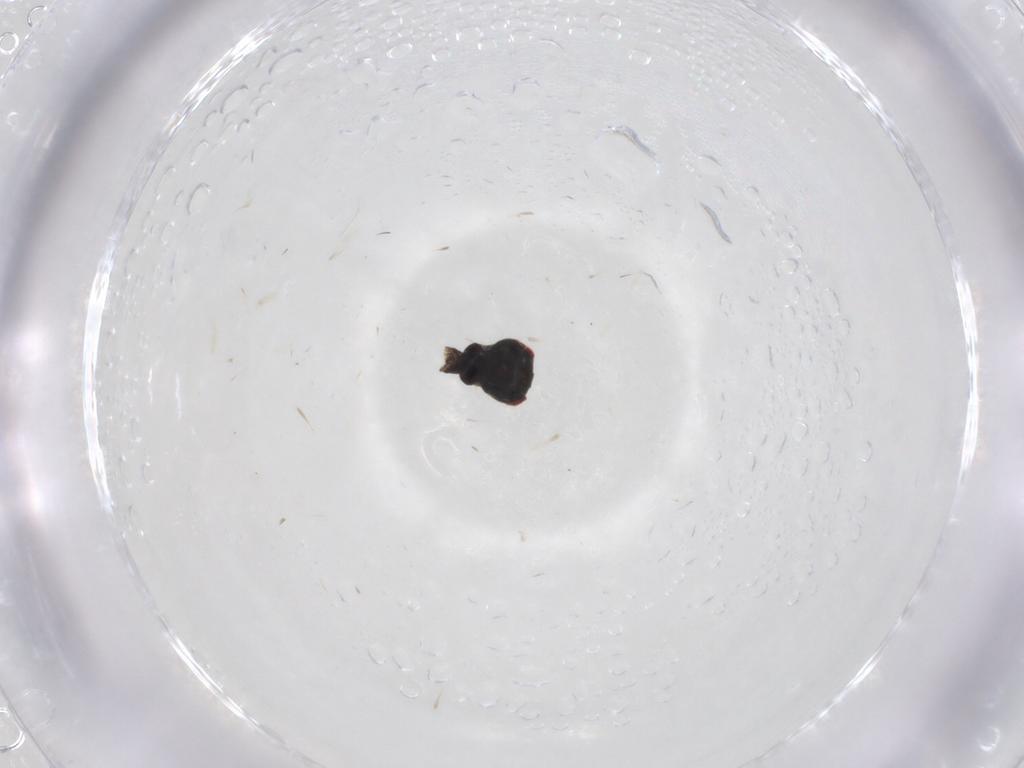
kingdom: Animalia
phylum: Arthropoda
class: Insecta
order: Diptera
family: Dolichopodidae
